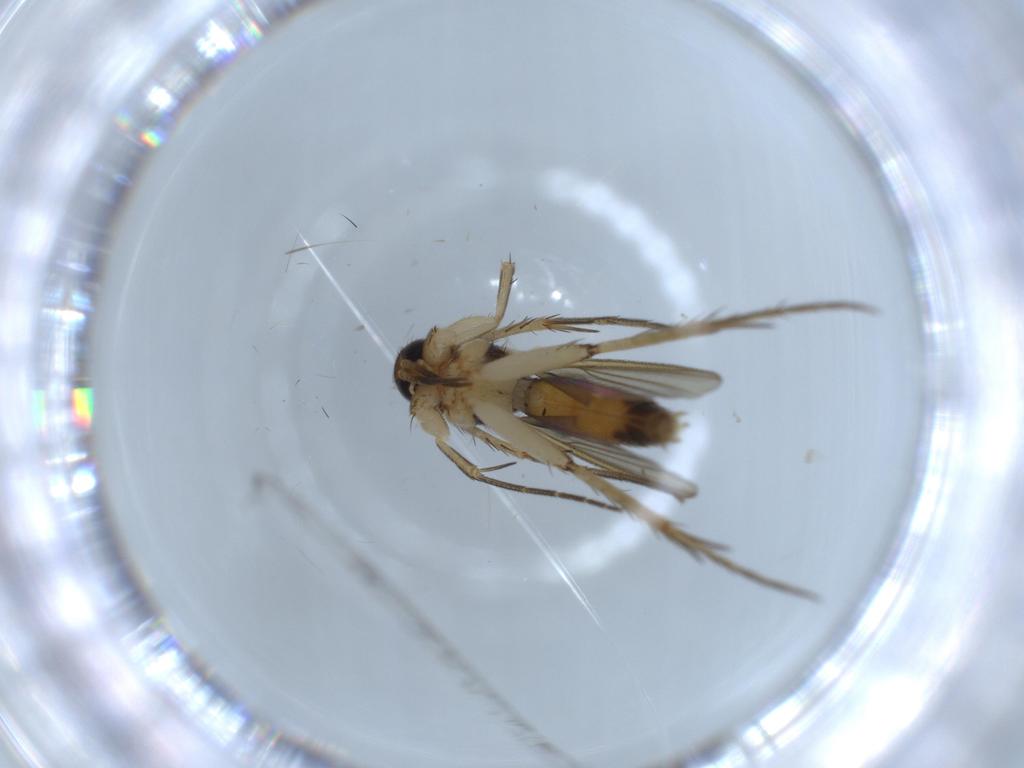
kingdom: Animalia
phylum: Arthropoda
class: Insecta
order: Diptera
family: Mycetophilidae
